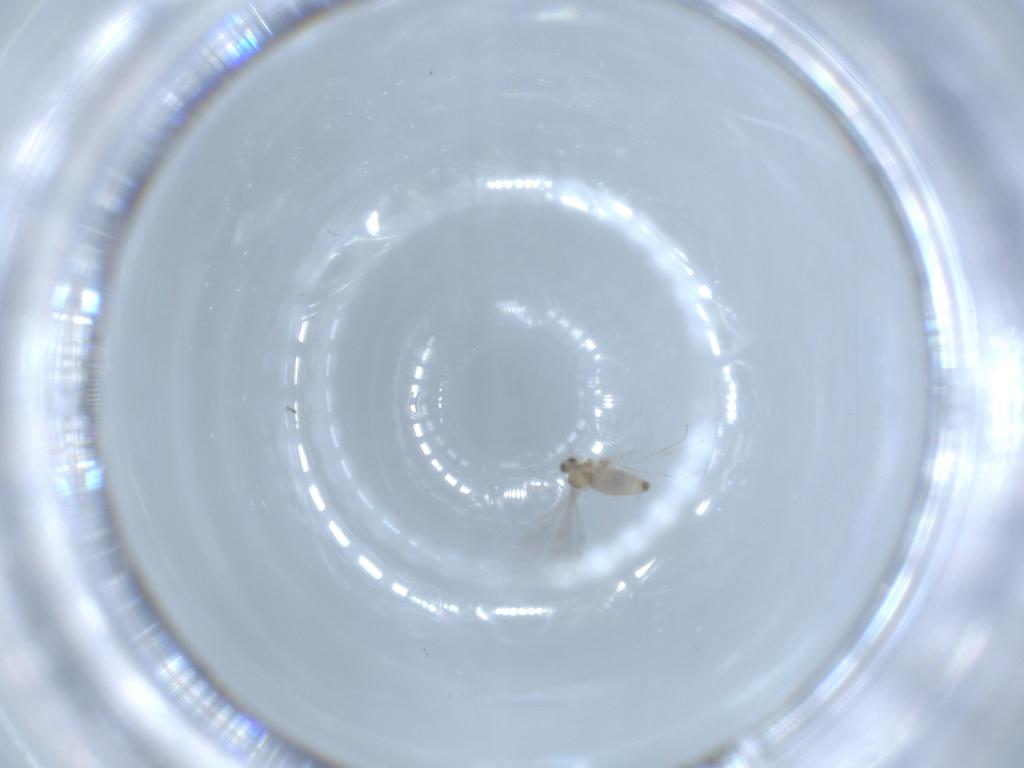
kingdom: Animalia
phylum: Arthropoda
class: Insecta
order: Diptera
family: Cecidomyiidae
